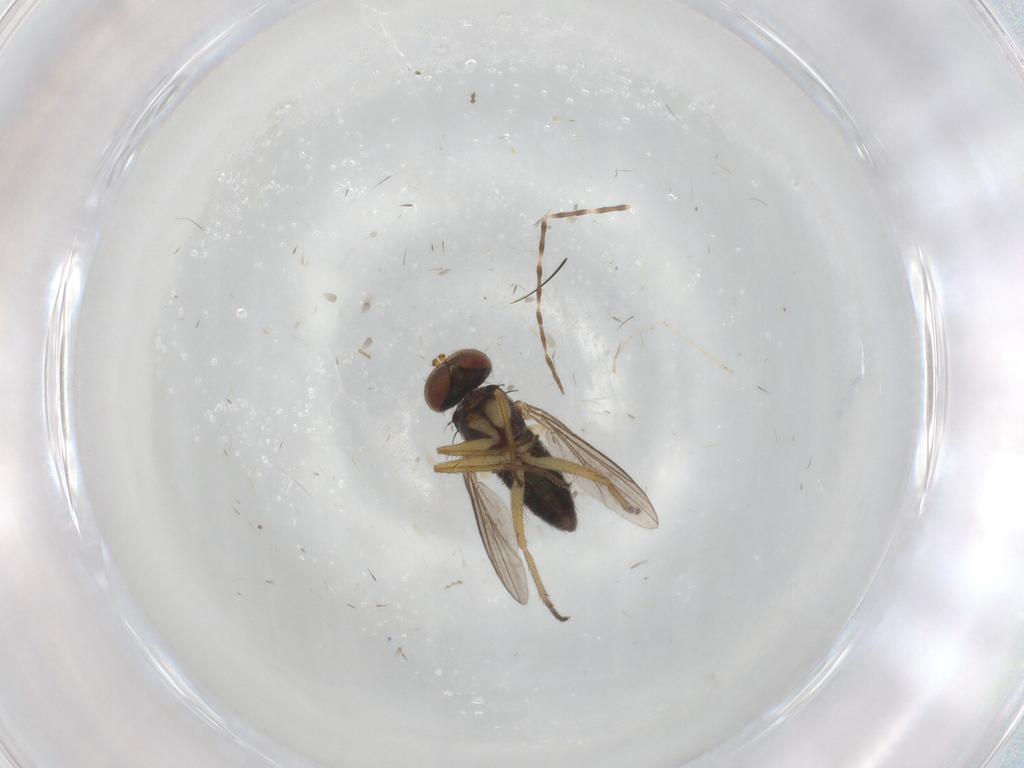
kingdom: Animalia
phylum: Arthropoda
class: Insecta
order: Diptera
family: Cecidomyiidae
